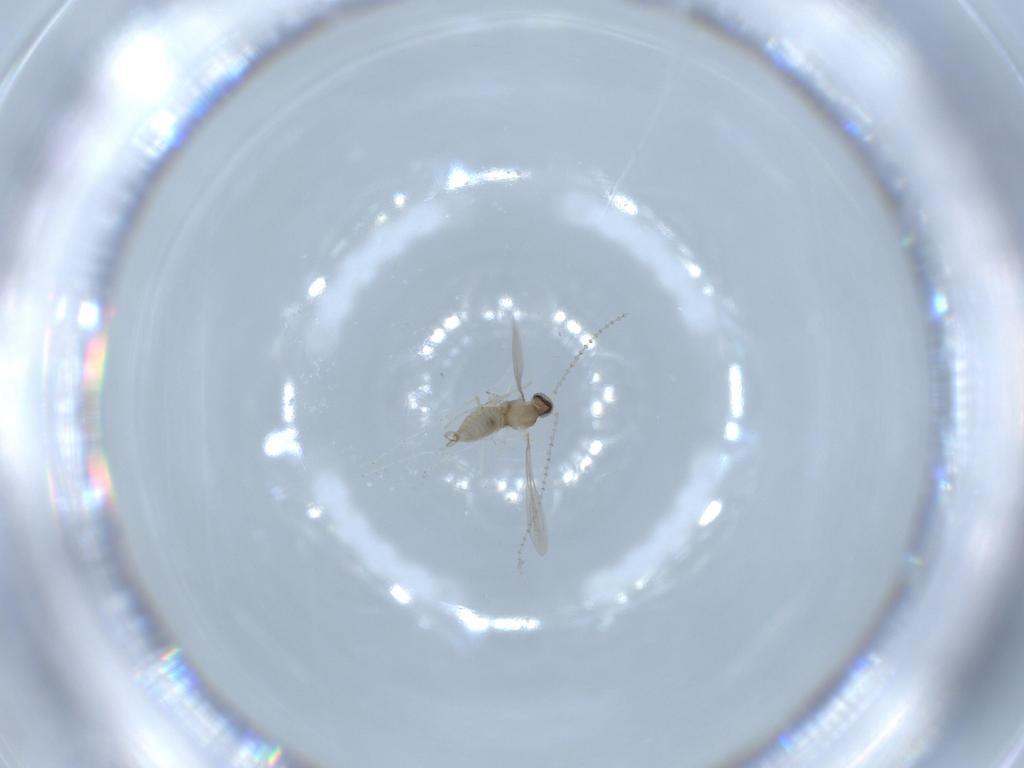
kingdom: Animalia
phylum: Arthropoda
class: Insecta
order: Diptera
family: Cecidomyiidae
